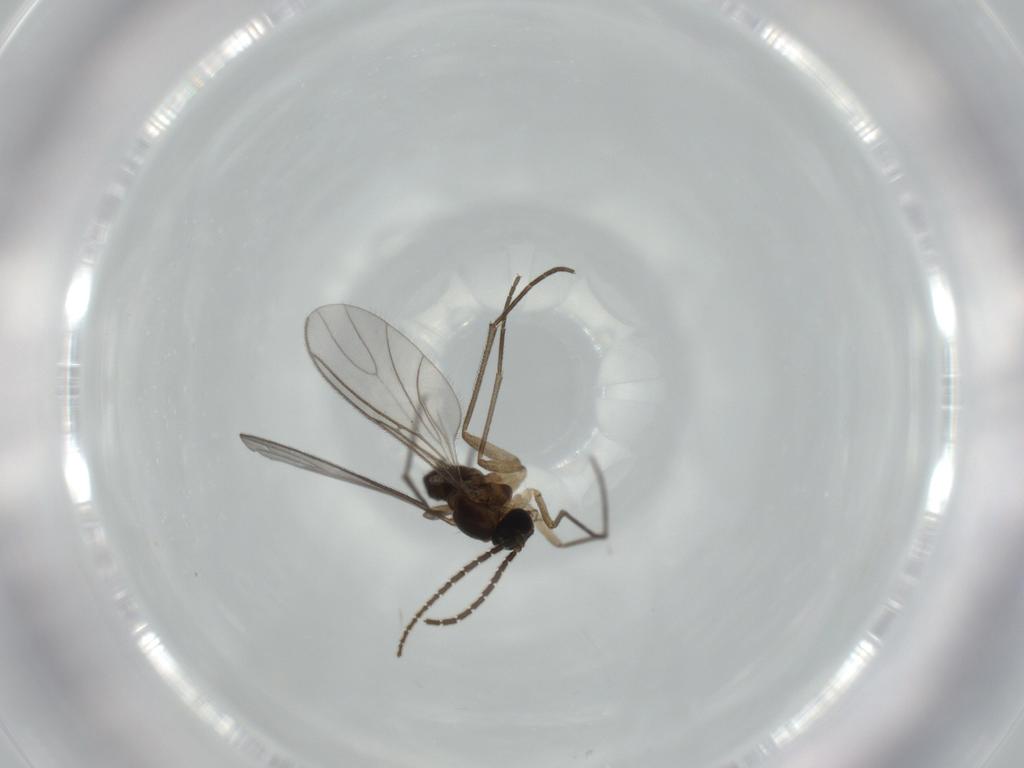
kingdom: Animalia
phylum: Arthropoda
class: Insecta
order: Diptera
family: Sciaridae
